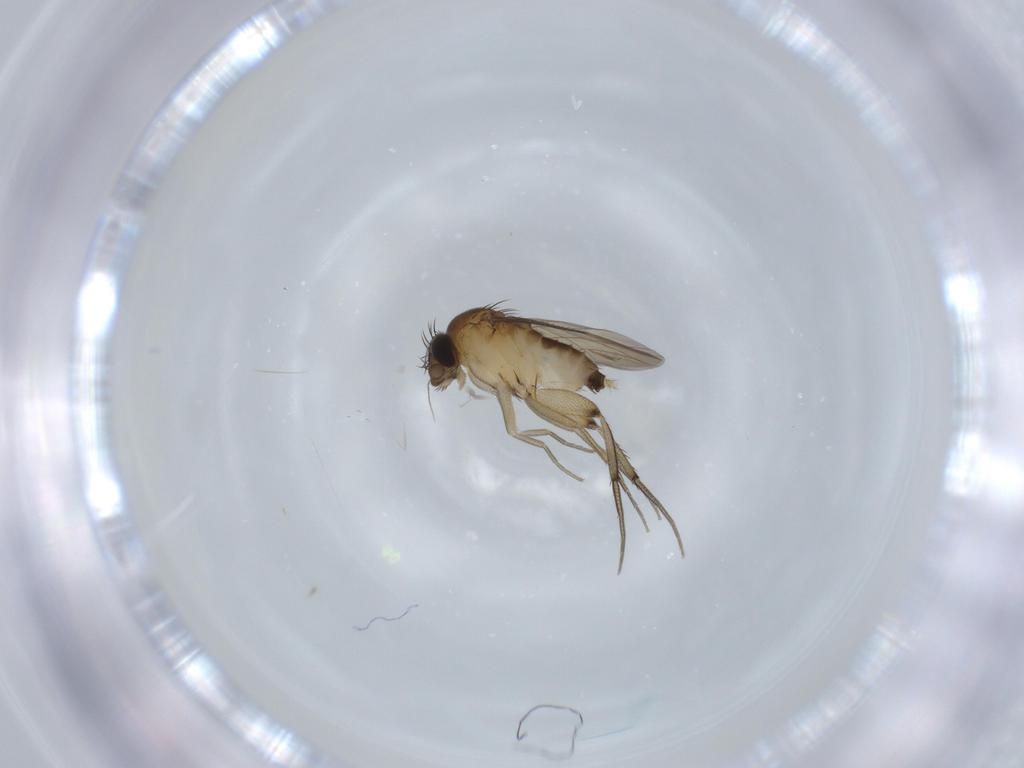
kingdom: Animalia
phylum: Arthropoda
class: Insecta
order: Diptera
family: Phoridae
